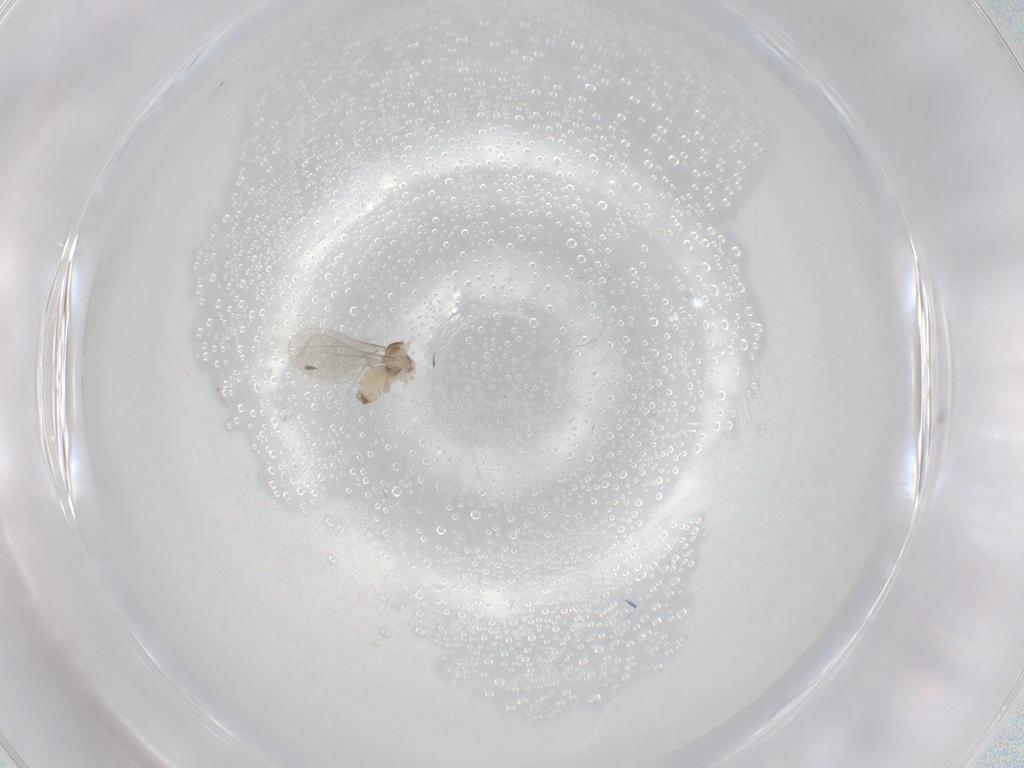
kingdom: Animalia
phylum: Arthropoda
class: Insecta
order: Diptera
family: Cecidomyiidae
